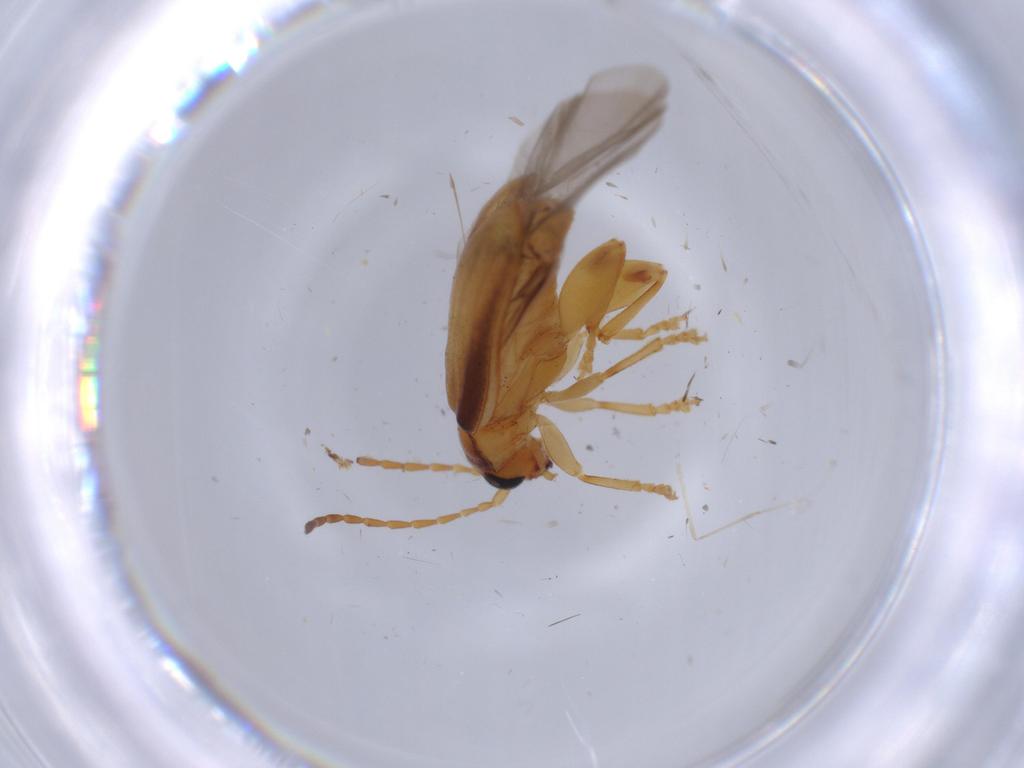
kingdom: Animalia
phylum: Arthropoda
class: Insecta
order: Coleoptera
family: Chrysomelidae
